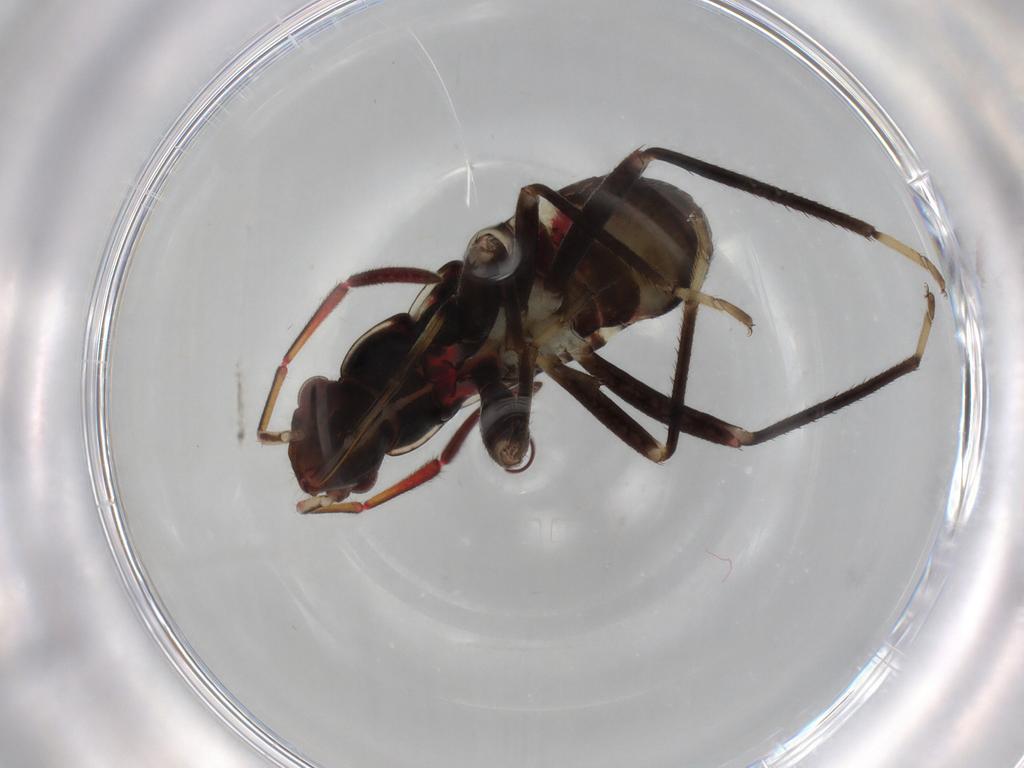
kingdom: Animalia
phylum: Arthropoda
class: Insecta
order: Hemiptera
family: Rhyparochromidae
